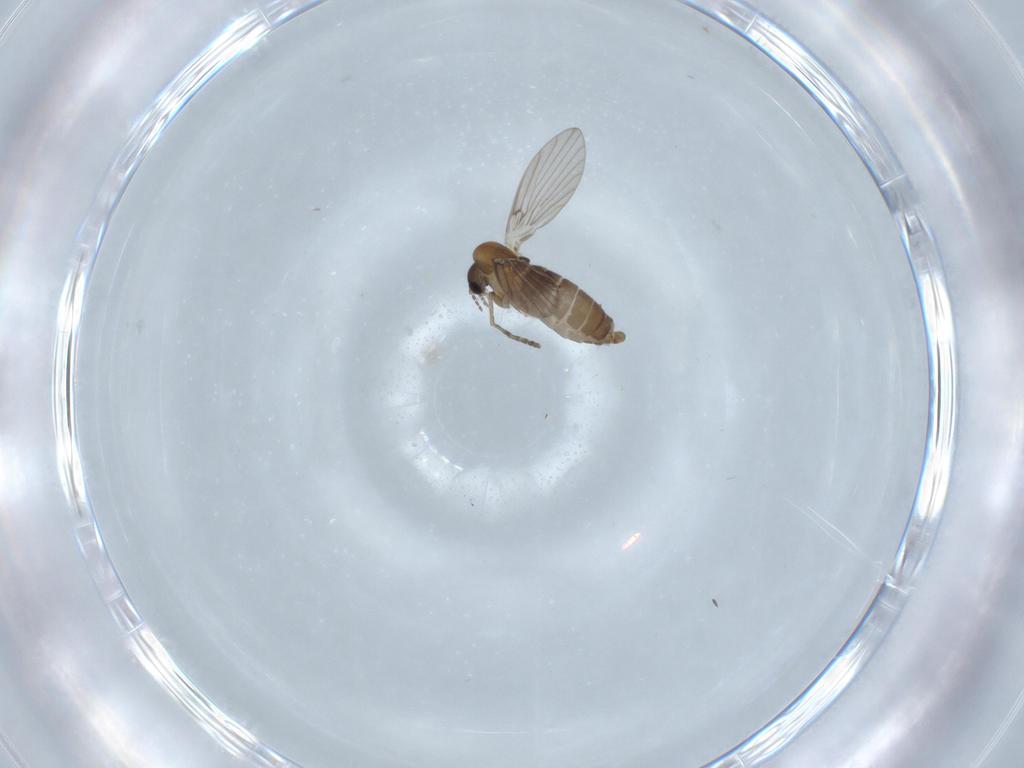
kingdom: Animalia
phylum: Arthropoda
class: Insecta
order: Diptera
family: Psychodidae
